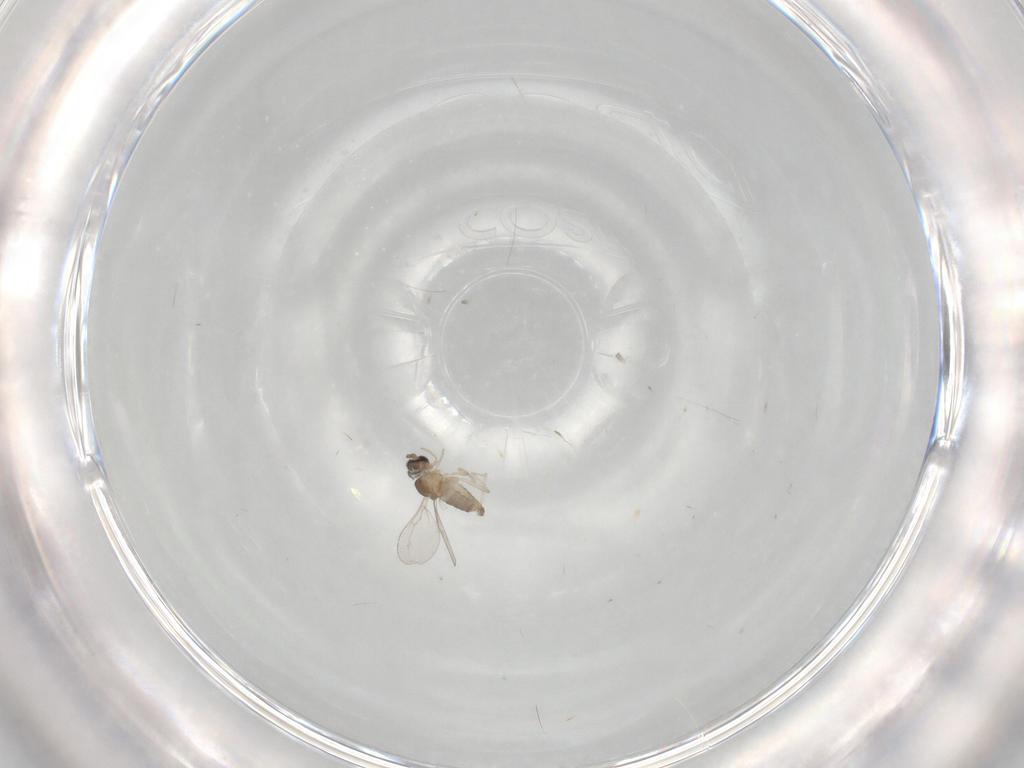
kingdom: Animalia
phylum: Arthropoda
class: Insecta
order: Diptera
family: Cecidomyiidae
